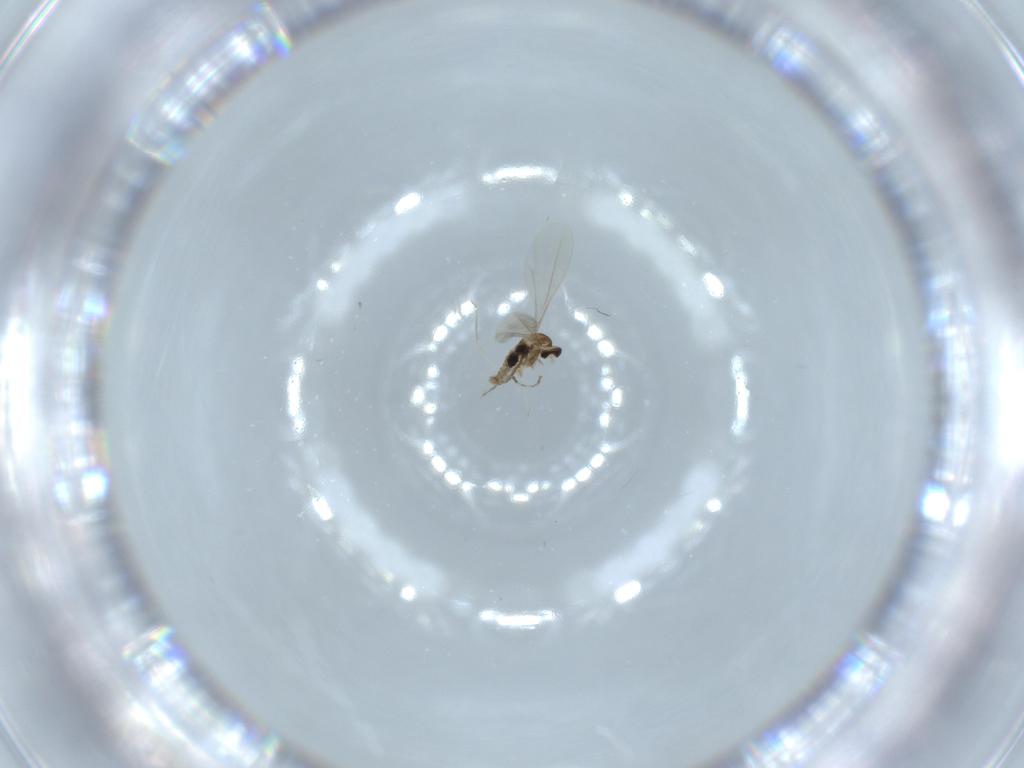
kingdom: Animalia
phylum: Arthropoda
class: Insecta
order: Diptera
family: Cecidomyiidae
